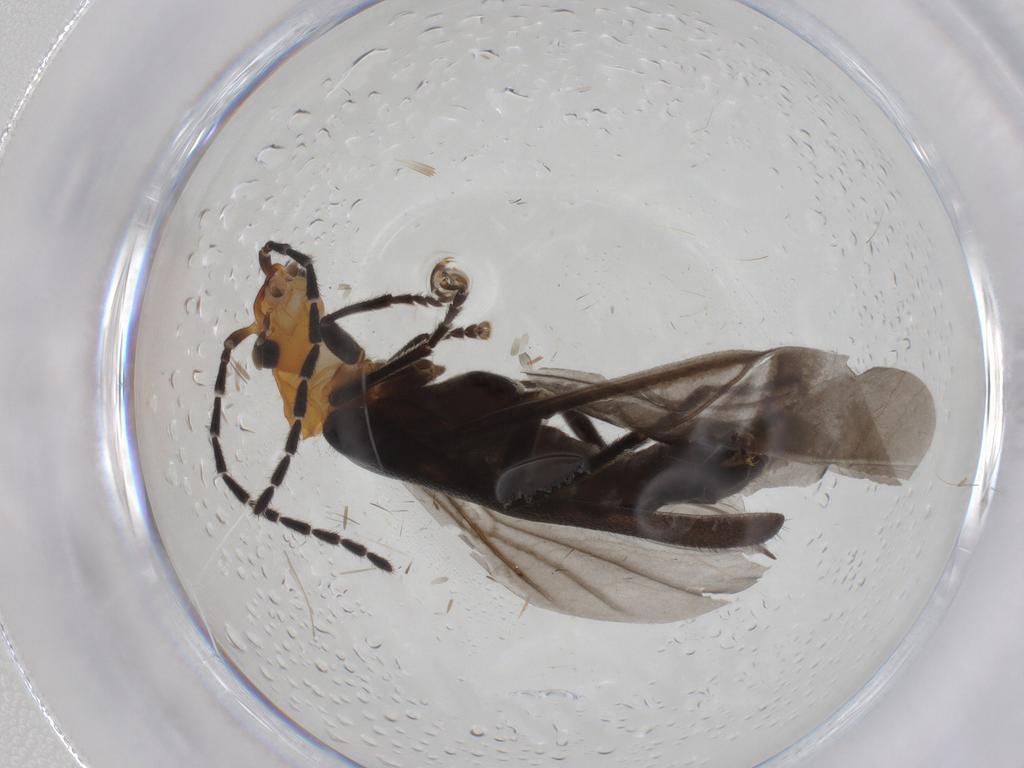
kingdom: Animalia
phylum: Arthropoda
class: Insecta
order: Coleoptera
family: Cantharidae
